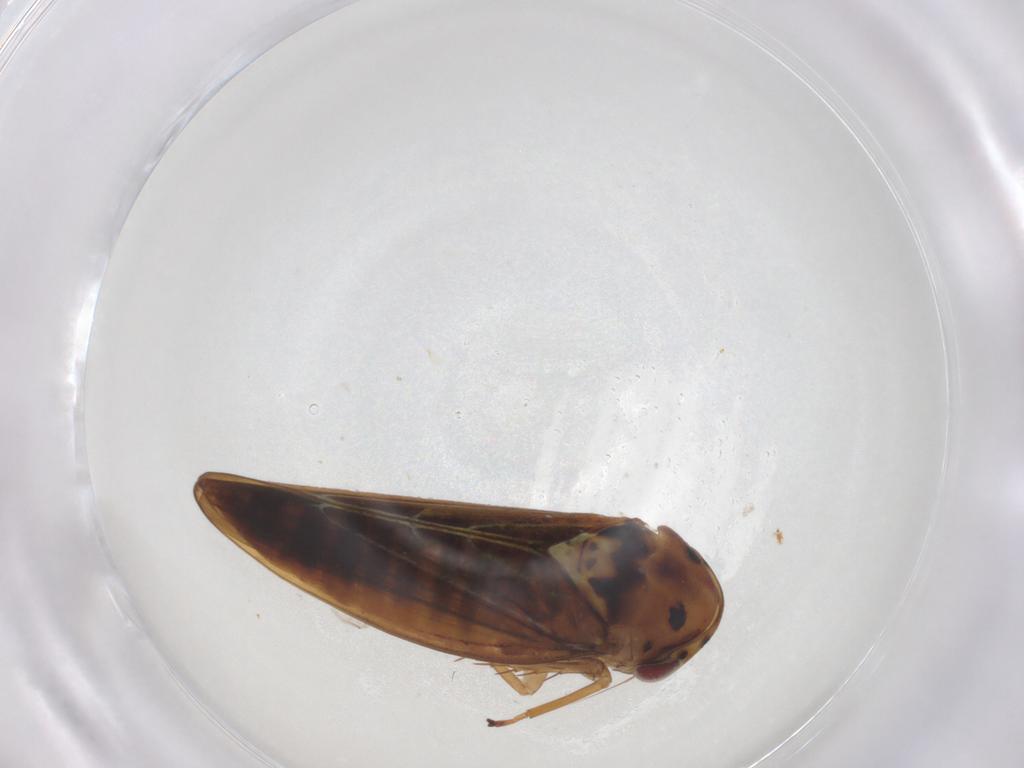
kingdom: Animalia
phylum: Arthropoda
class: Insecta
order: Hemiptera
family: Cicadellidae
